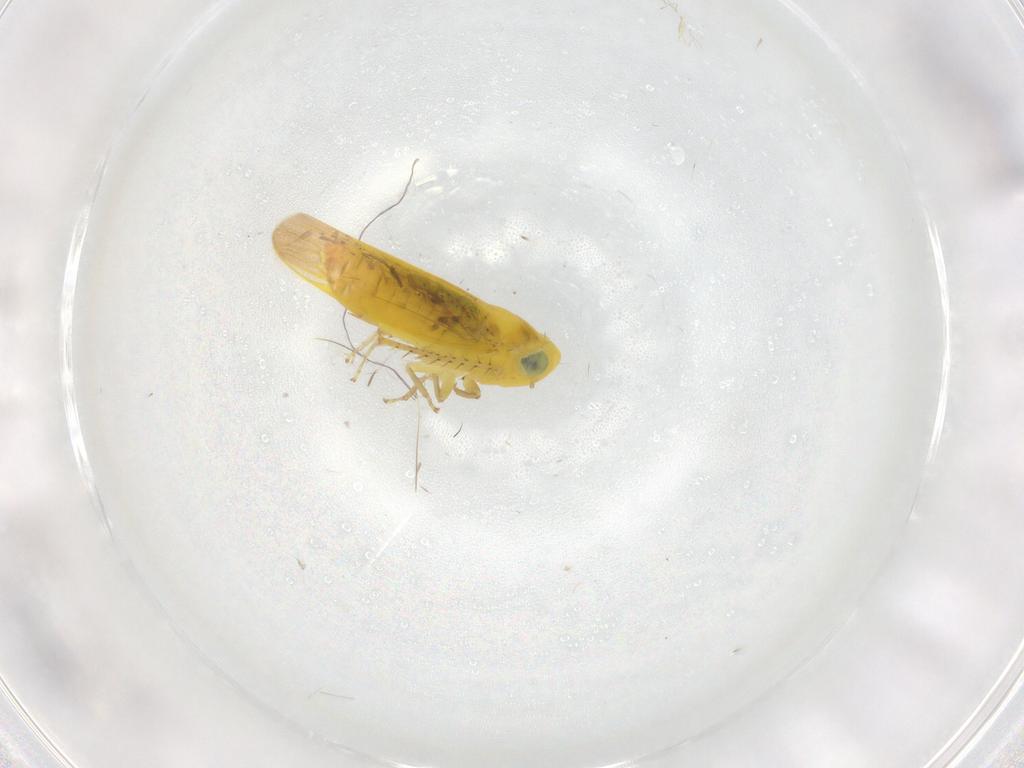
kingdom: Animalia
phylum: Arthropoda
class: Insecta
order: Hemiptera
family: Cicadellidae
